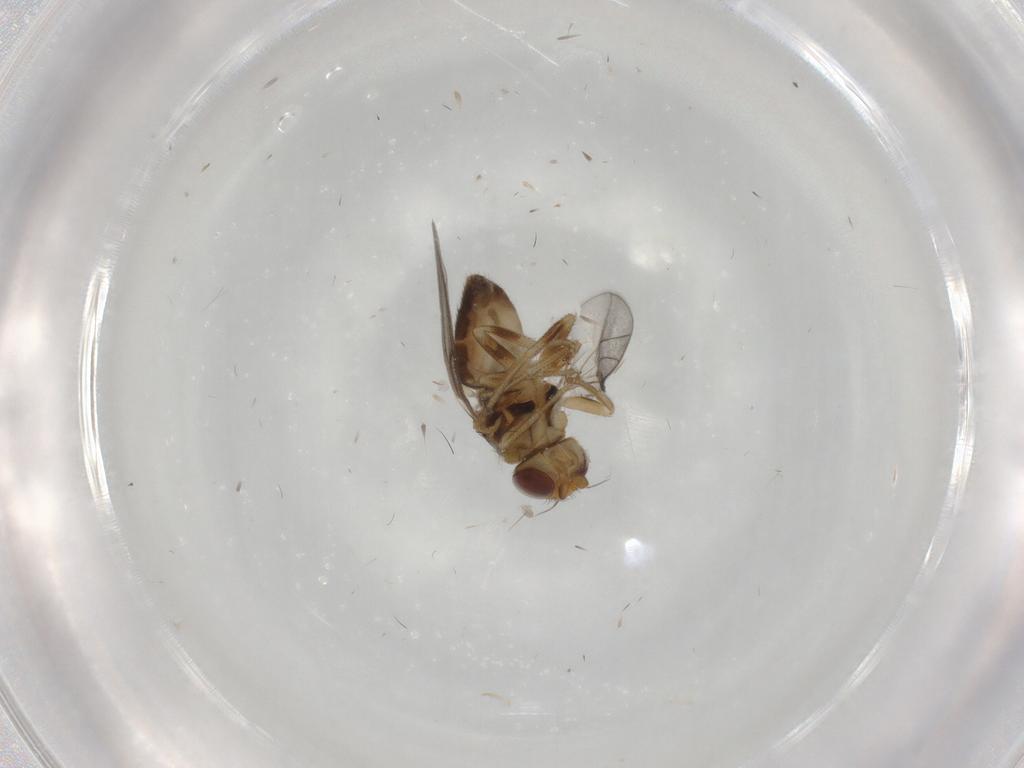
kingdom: Animalia
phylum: Arthropoda
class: Insecta
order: Diptera
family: Chloropidae
